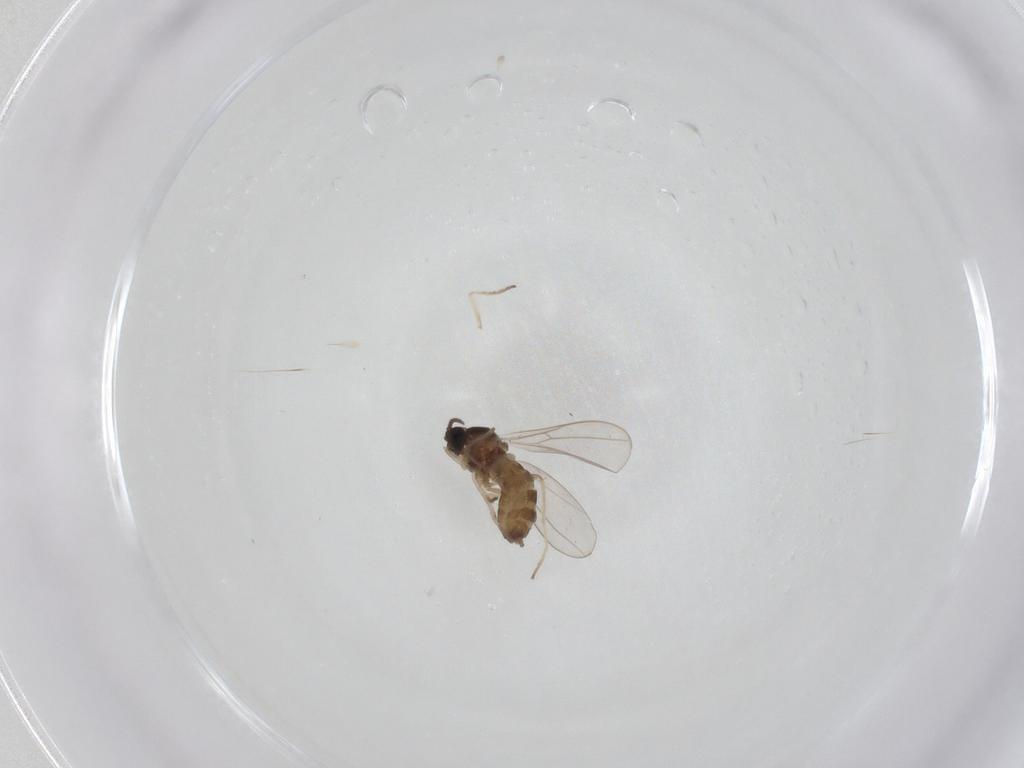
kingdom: Animalia
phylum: Arthropoda
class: Insecta
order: Diptera
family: Cecidomyiidae
